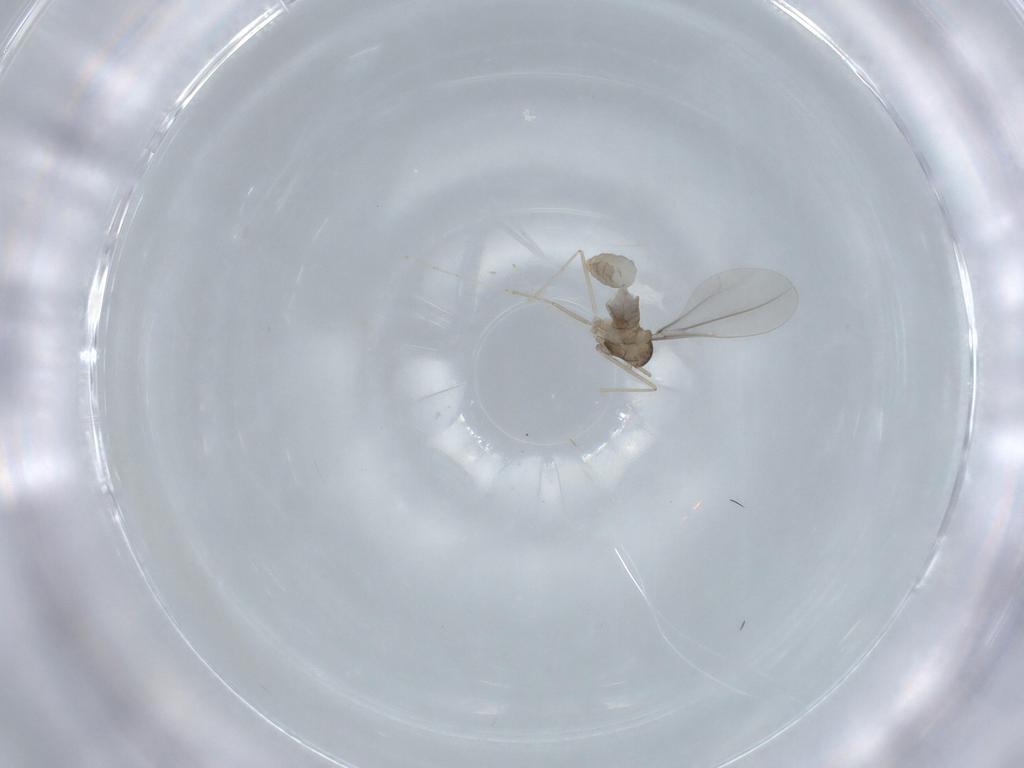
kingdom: Animalia
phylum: Arthropoda
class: Insecta
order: Diptera
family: Cecidomyiidae
